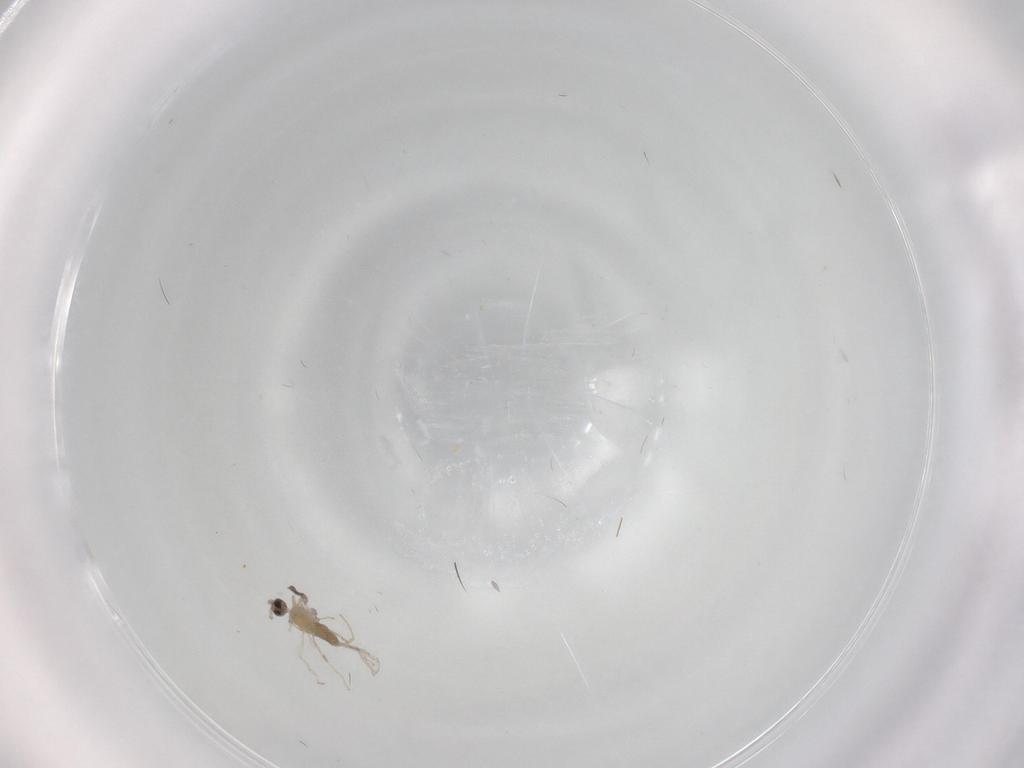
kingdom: Animalia
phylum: Arthropoda
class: Insecta
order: Diptera
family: Cecidomyiidae
